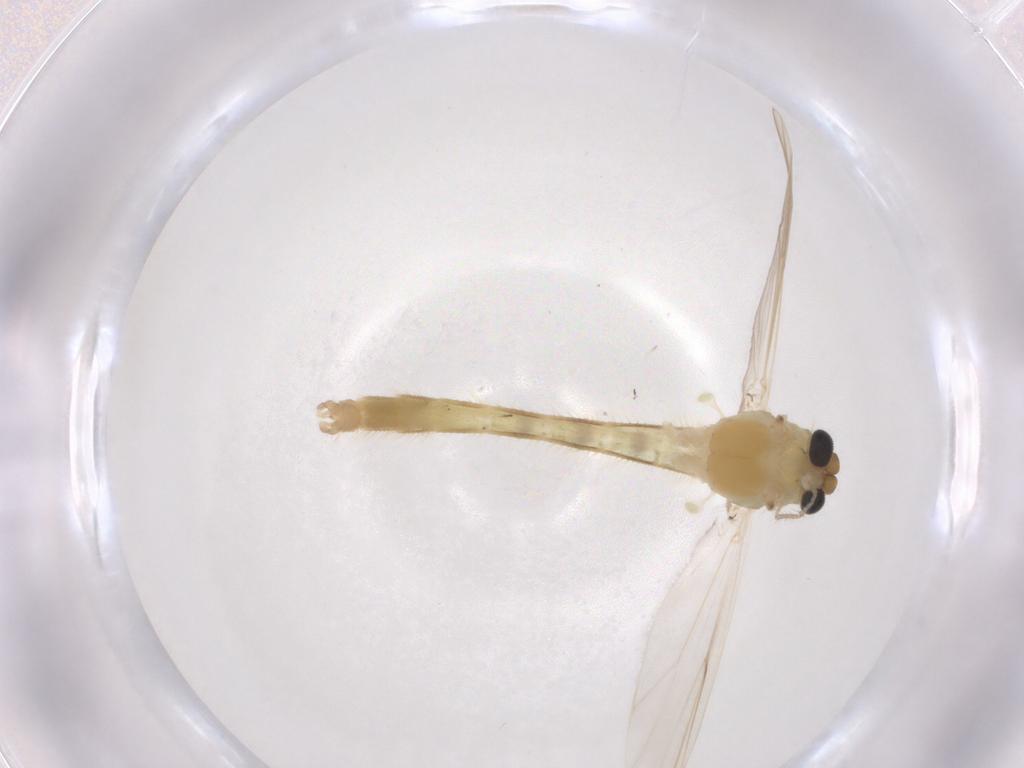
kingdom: Animalia
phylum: Arthropoda
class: Insecta
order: Diptera
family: Chironomidae
